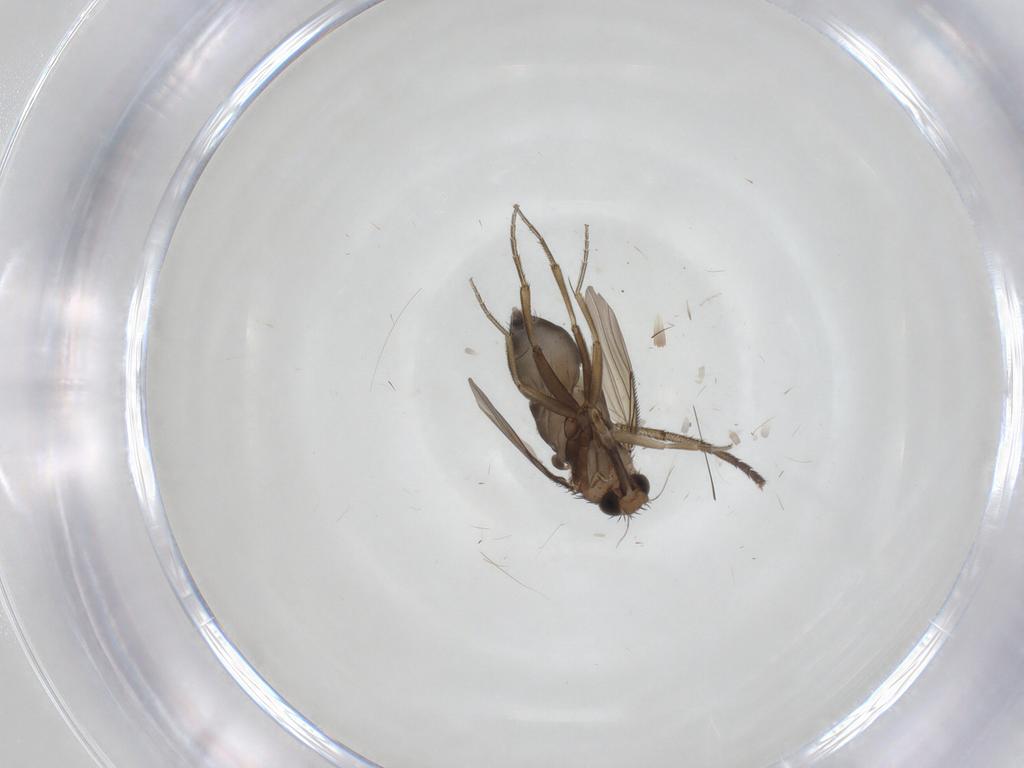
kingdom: Animalia
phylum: Arthropoda
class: Insecta
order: Diptera
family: Phoridae
